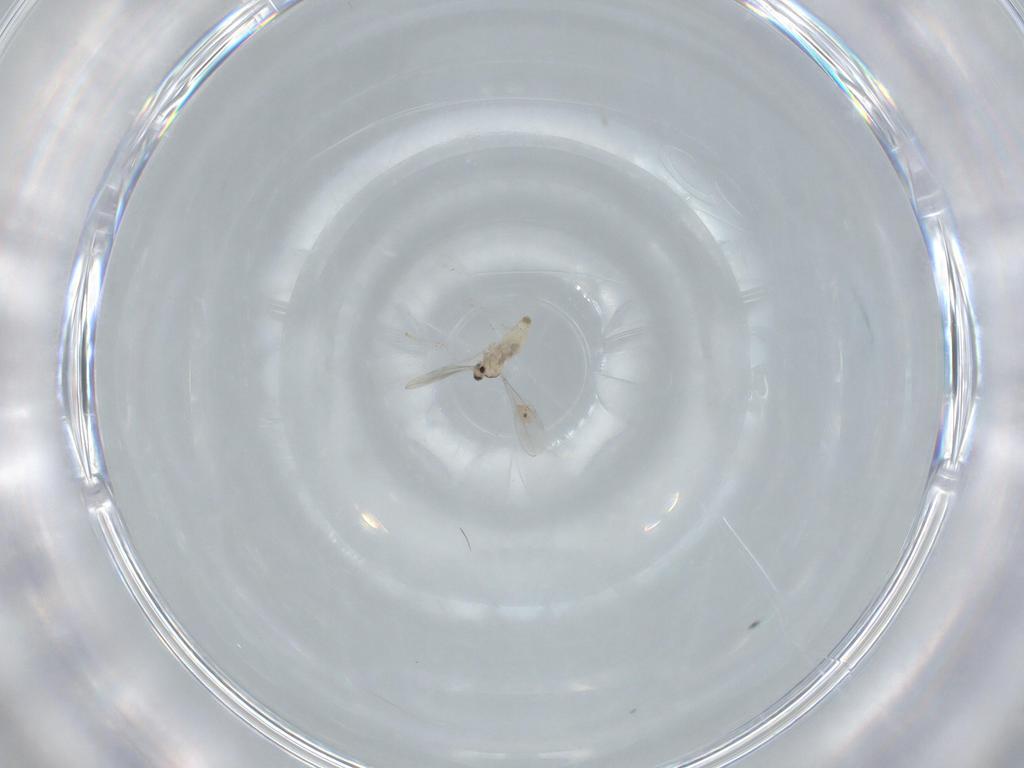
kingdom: Animalia
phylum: Arthropoda
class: Insecta
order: Diptera
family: Cecidomyiidae
